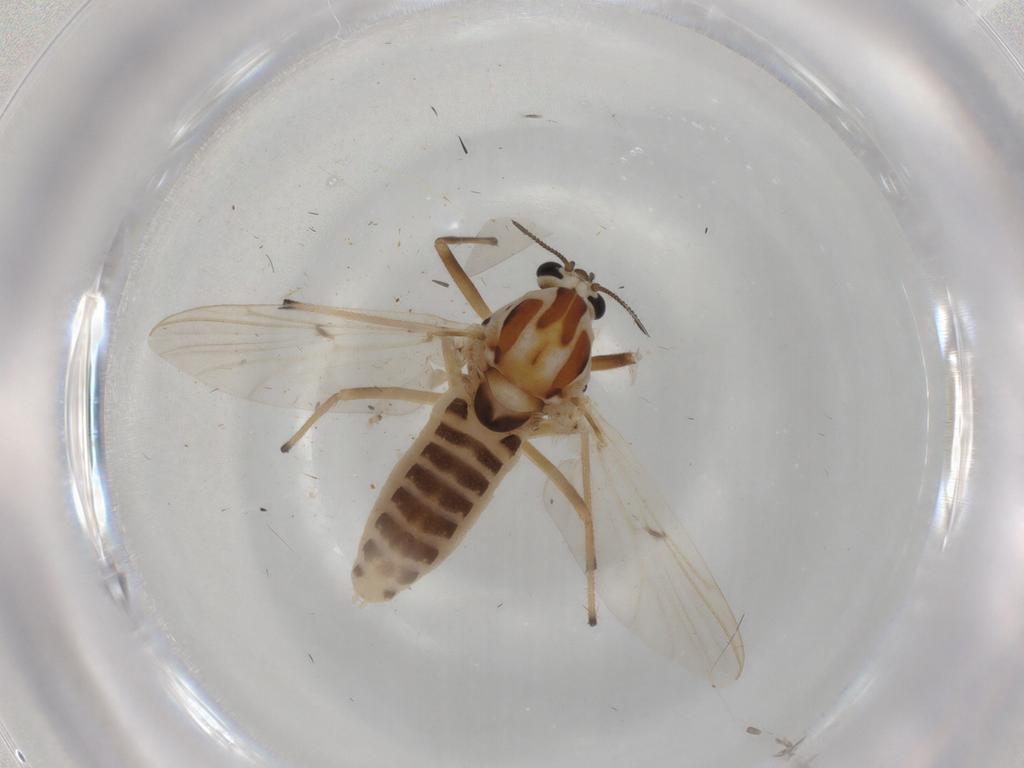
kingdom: Animalia
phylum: Arthropoda
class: Insecta
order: Diptera
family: Chironomidae
